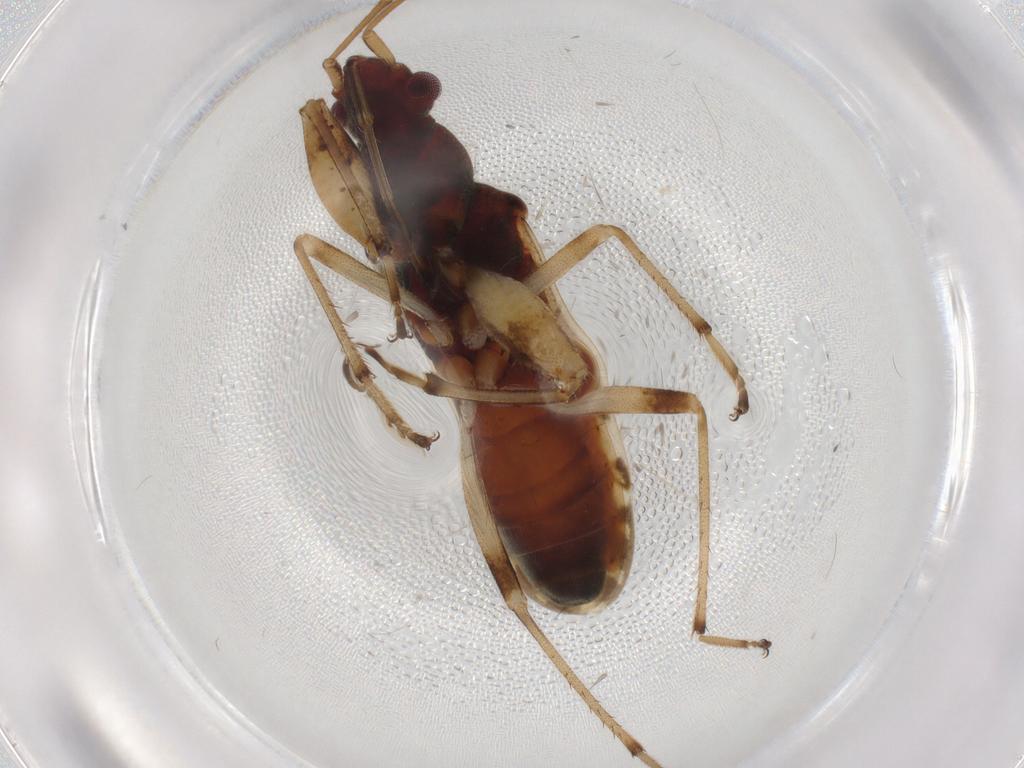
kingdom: Animalia
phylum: Arthropoda
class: Insecta
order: Hemiptera
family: Rhyparochromidae
